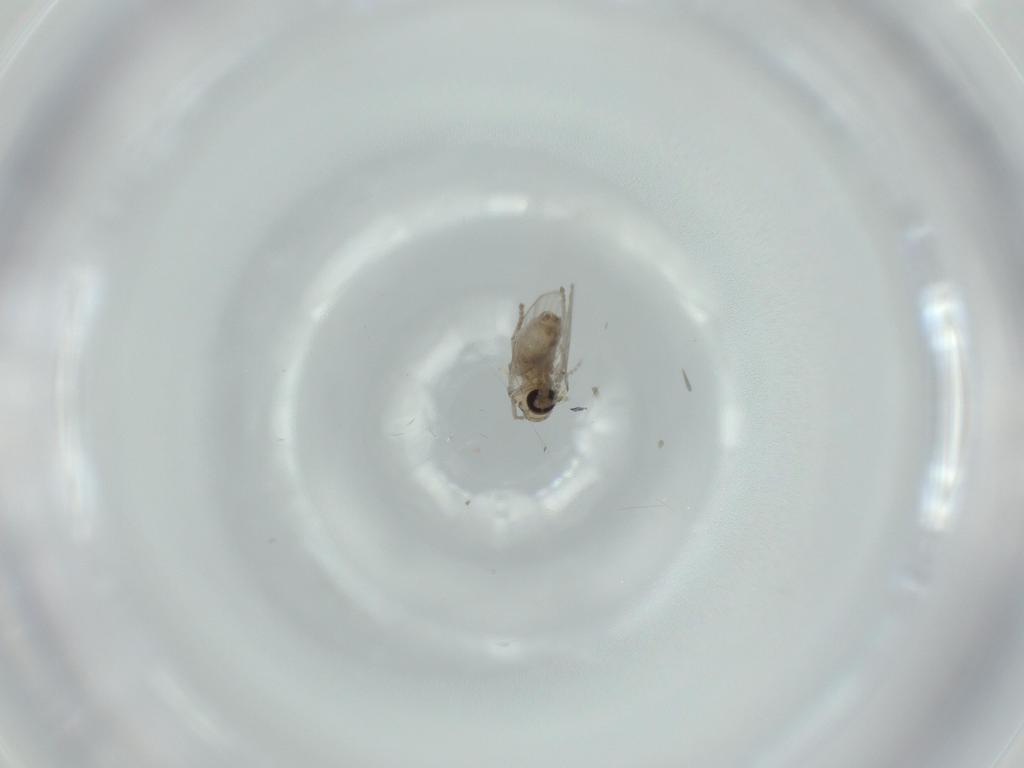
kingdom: Animalia
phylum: Arthropoda
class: Insecta
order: Diptera
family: Psychodidae
